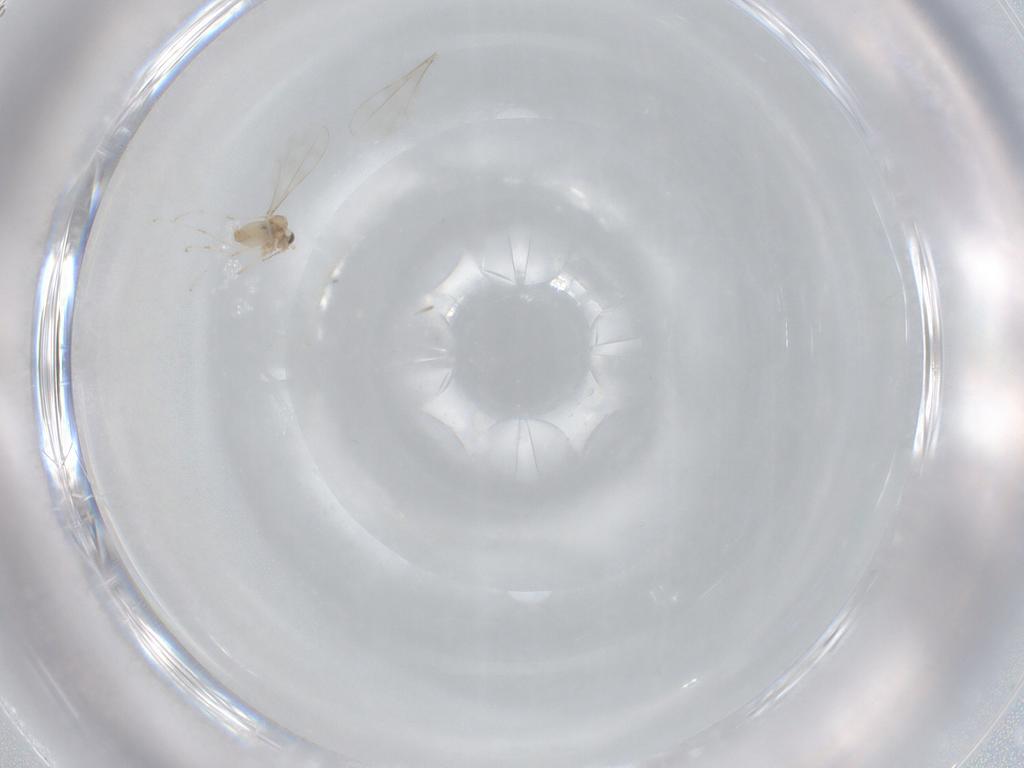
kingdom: Animalia
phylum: Arthropoda
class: Insecta
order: Diptera
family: Cecidomyiidae
